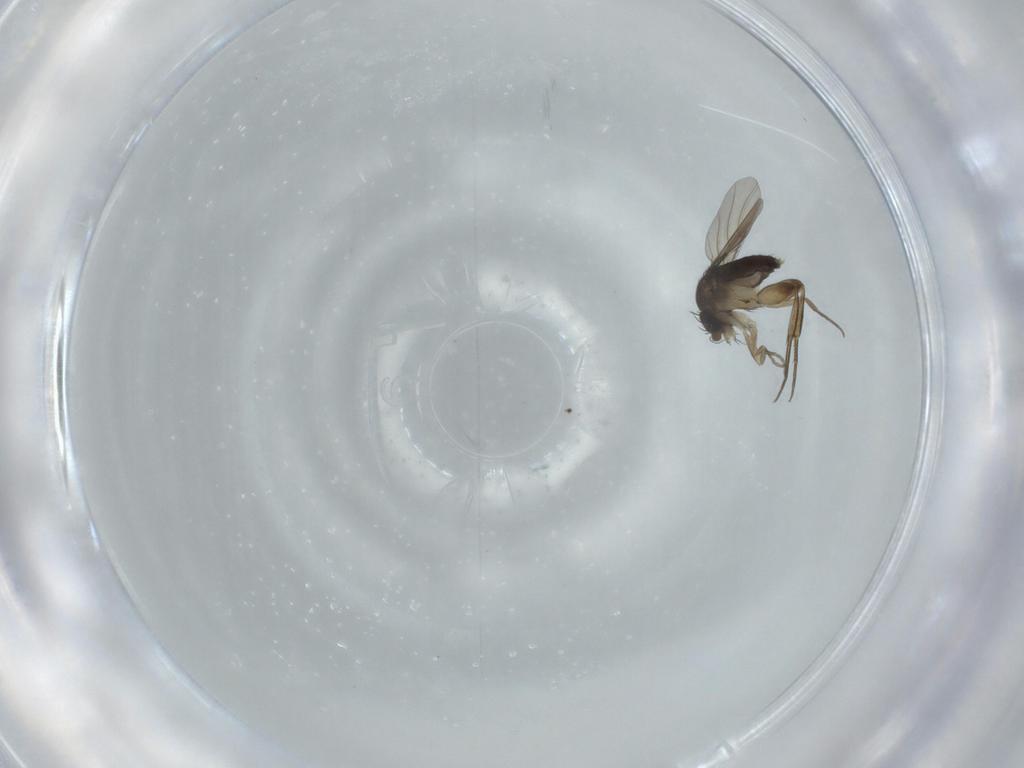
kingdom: Animalia
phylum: Arthropoda
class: Insecta
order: Diptera
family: Phoridae
